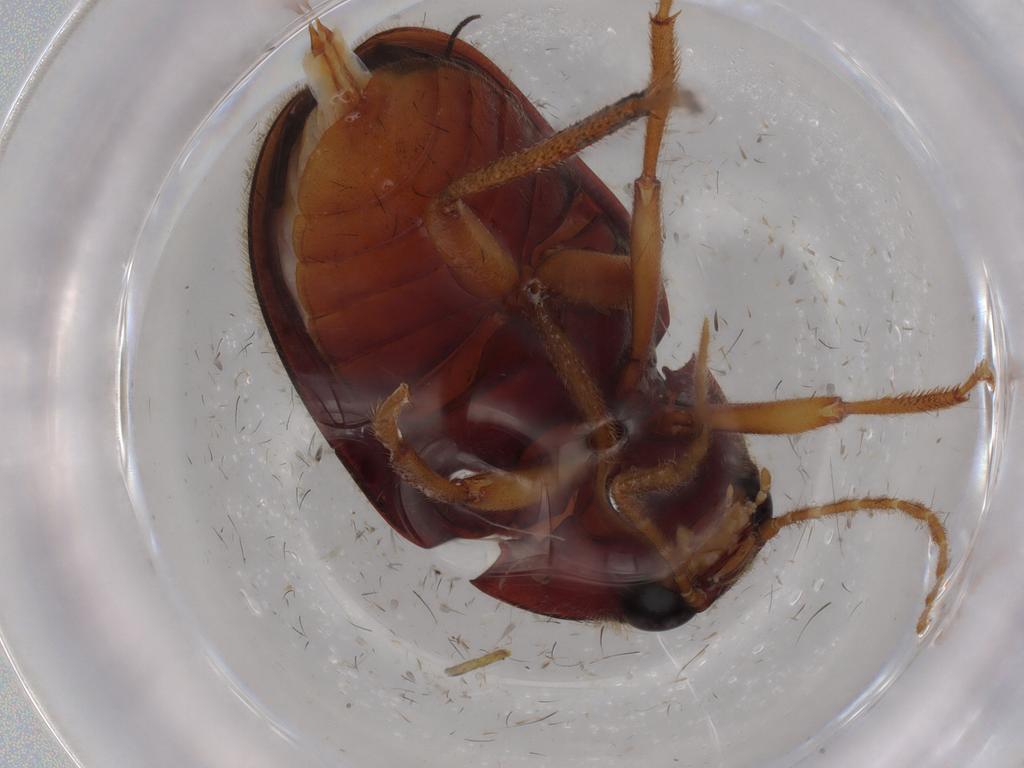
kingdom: Animalia
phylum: Arthropoda
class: Insecta
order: Coleoptera
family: Ptilodactylidae
